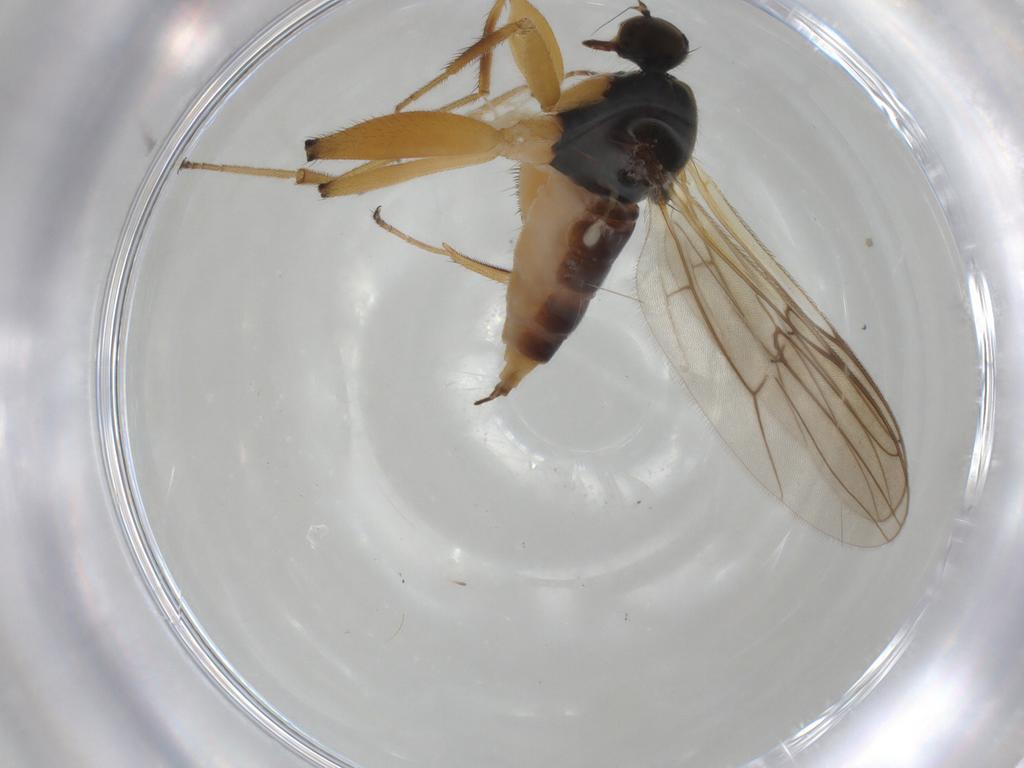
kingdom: Animalia
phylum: Arthropoda
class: Insecta
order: Diptera
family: Hybotidae
